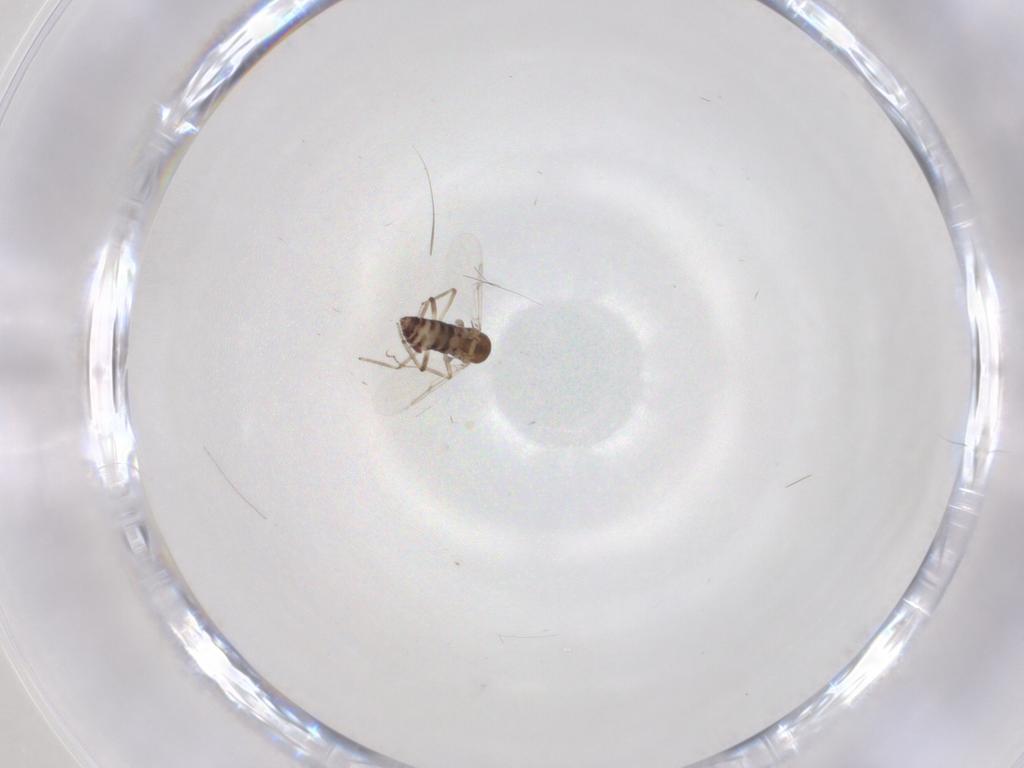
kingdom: Animalia
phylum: Arthropoda
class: Insecta
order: Diptera
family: Ceratopogonidae
